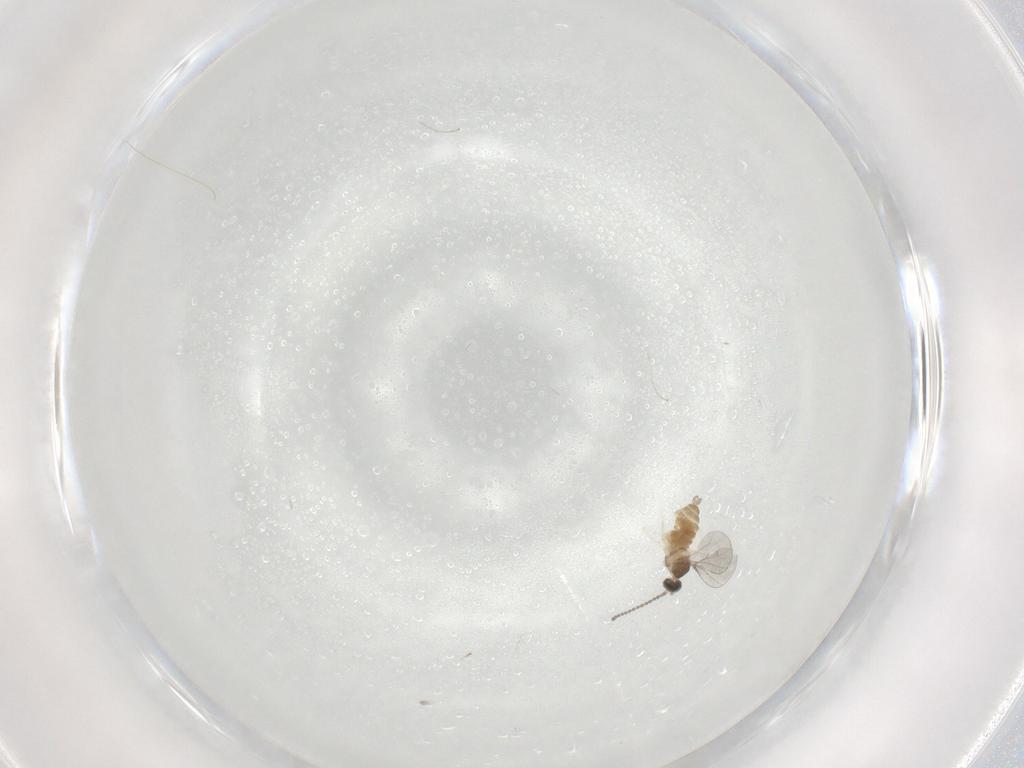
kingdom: Animalia
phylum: Arthropoda
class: Insecta
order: Diptera
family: Cecidomyiidae
